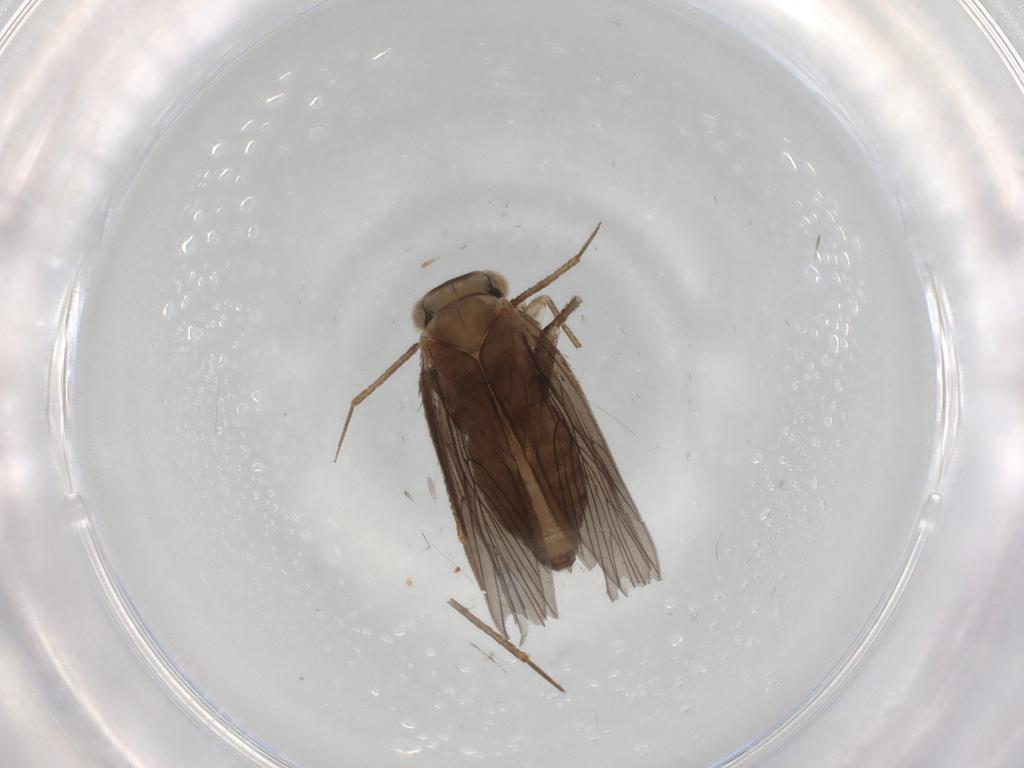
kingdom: Animalia
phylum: Arthropoda
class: Insecta
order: Psocodea
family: Lepidopsocidae
